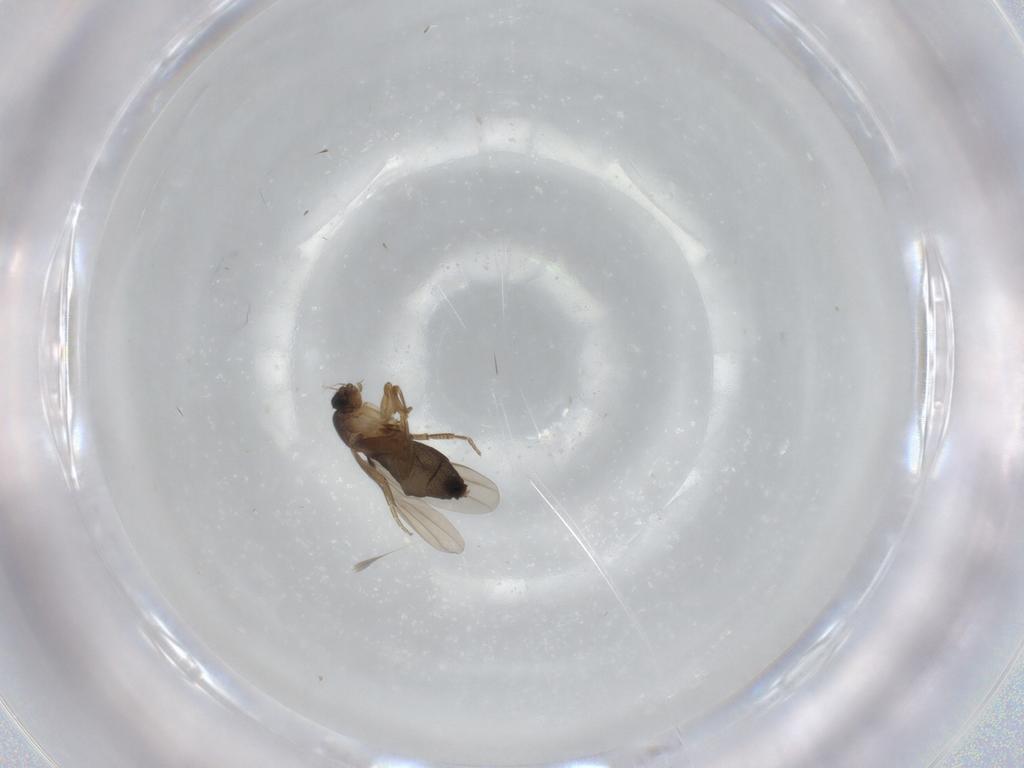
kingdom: Animalia
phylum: Arthropoda
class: Insecta
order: Diptera
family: Phoridae
